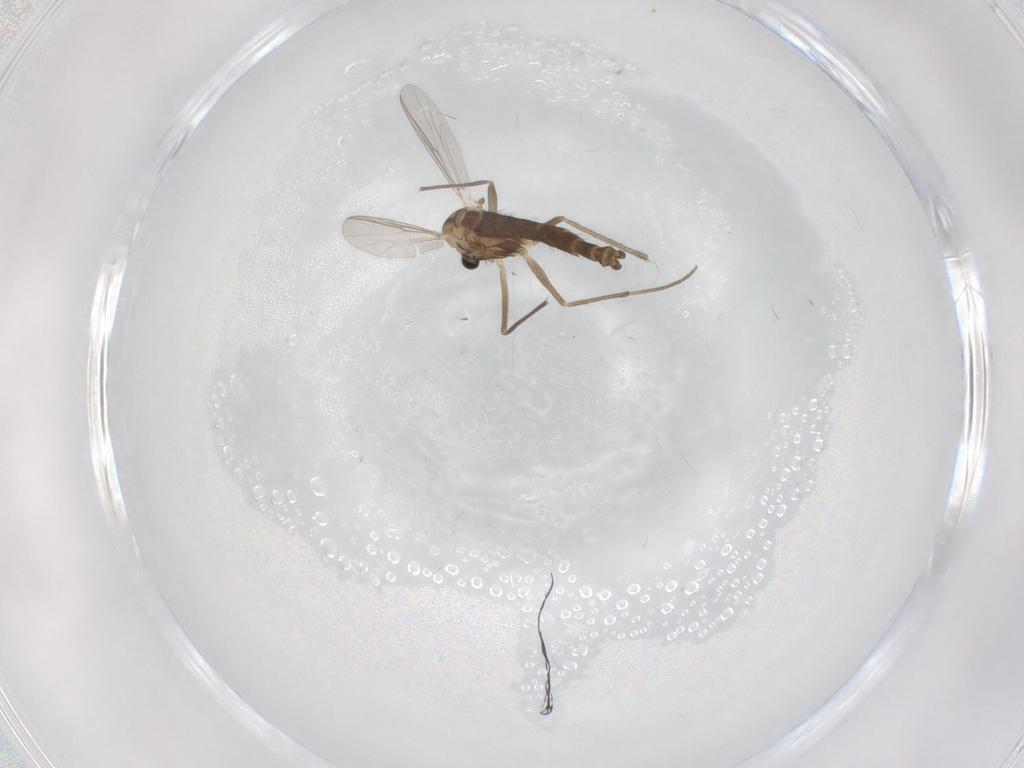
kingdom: Animalia
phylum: Arthropoda
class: Insecta
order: Diptera
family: Chironomidae
